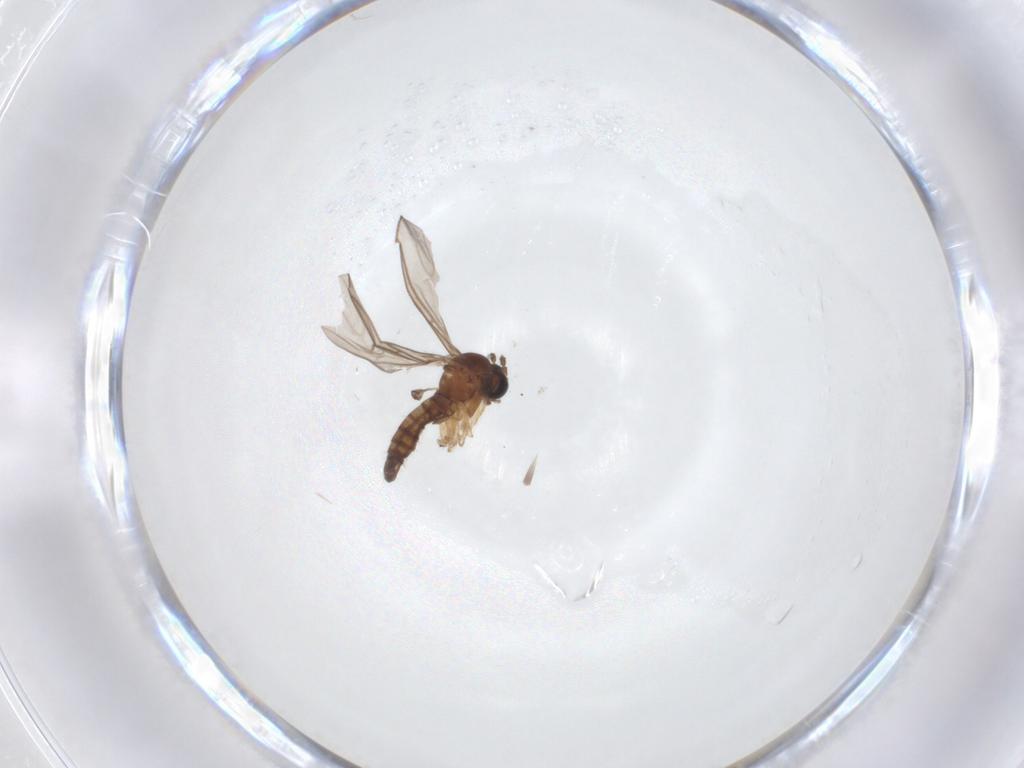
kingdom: Animalia
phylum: Arthropoda
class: Insecta
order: Diptera
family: Sciaridae
